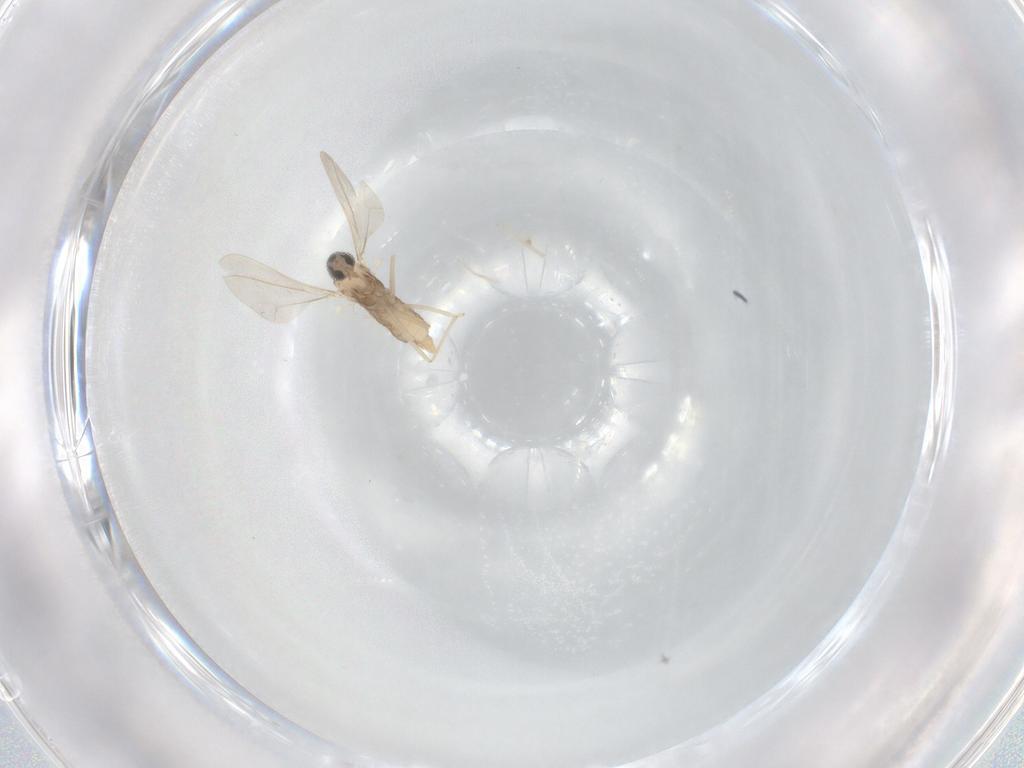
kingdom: Animalia
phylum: Arthropoda
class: Insecta
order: Diptera
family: Cecidomyiidae
